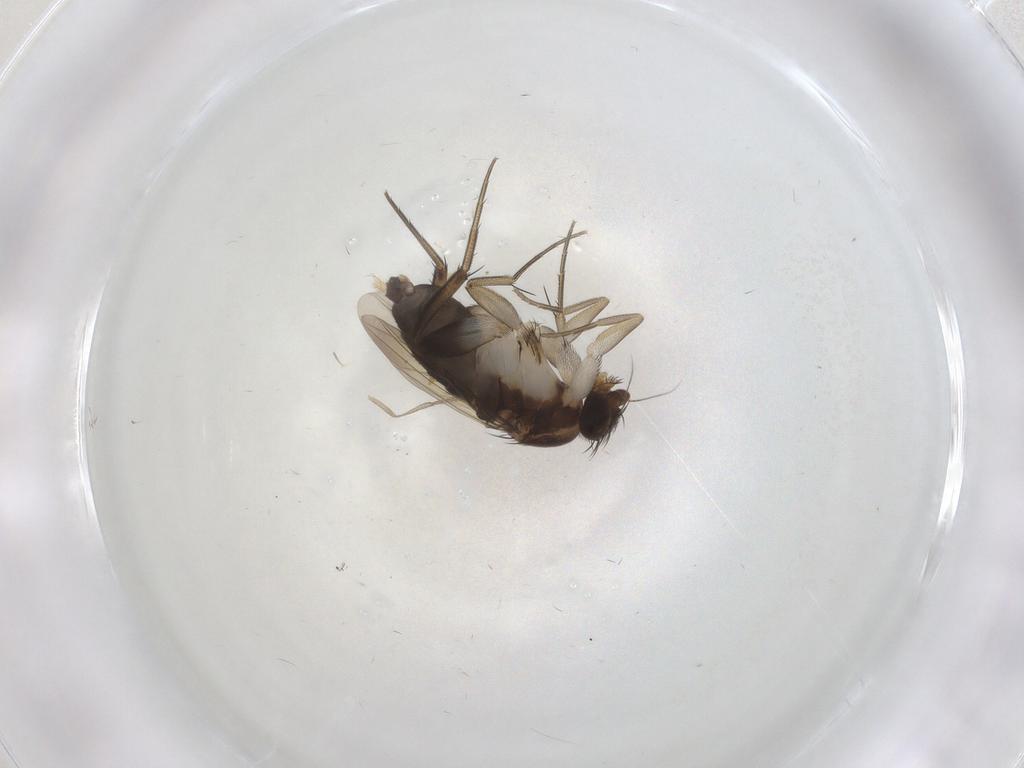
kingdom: Animalia
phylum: Arthropoda
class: Insecta
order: Diptera
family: Phoridae
